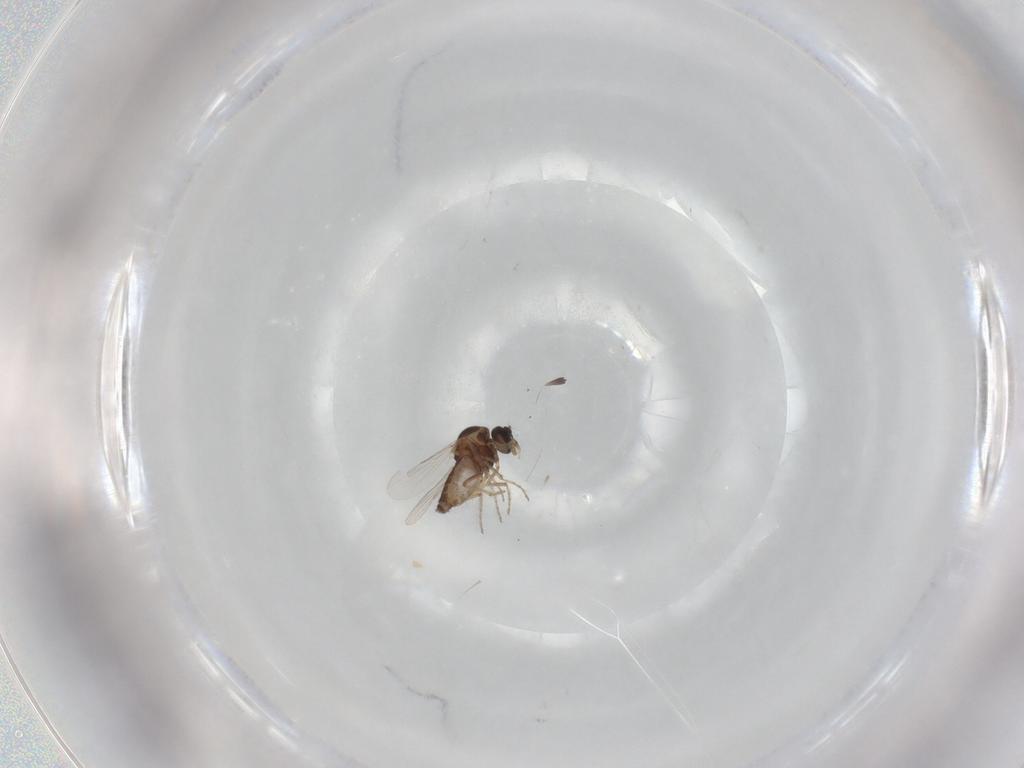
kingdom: Animalia
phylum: Arthropoda
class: Insecta
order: Diptera
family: Ceratopogonidae
